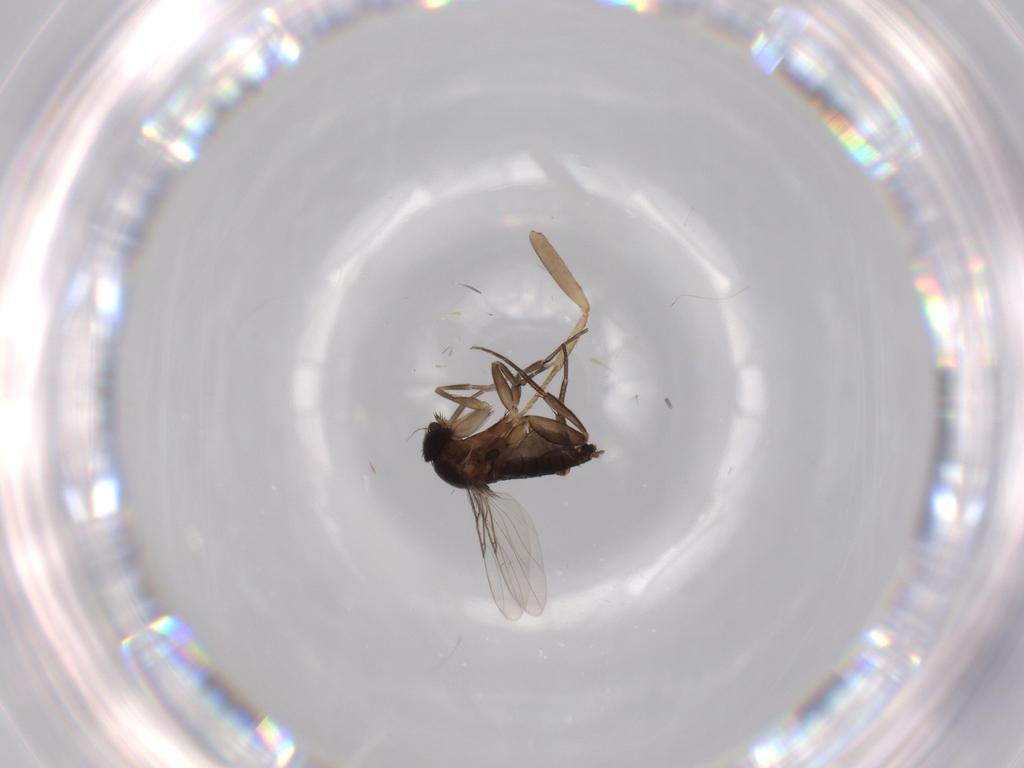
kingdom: Animalia
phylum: Arthropoda
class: Insecta
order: Diptera
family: Phoridae
